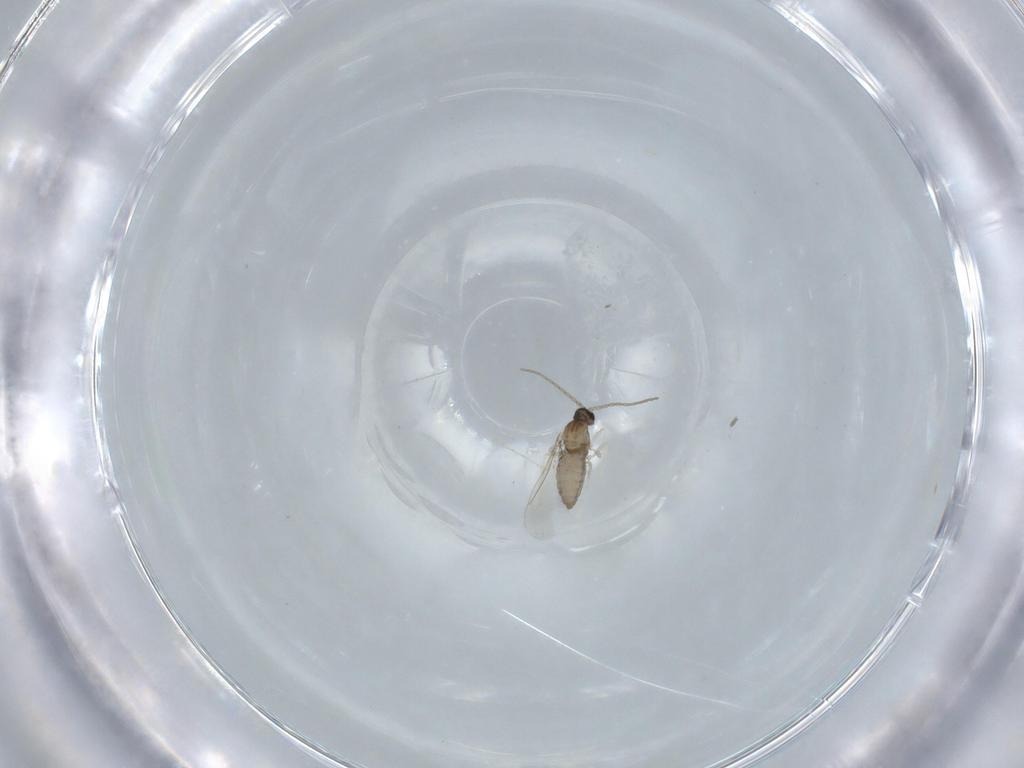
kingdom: Animalia
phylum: Arthropoda
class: Insecta
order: Diptera
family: Cecidomyiidae
